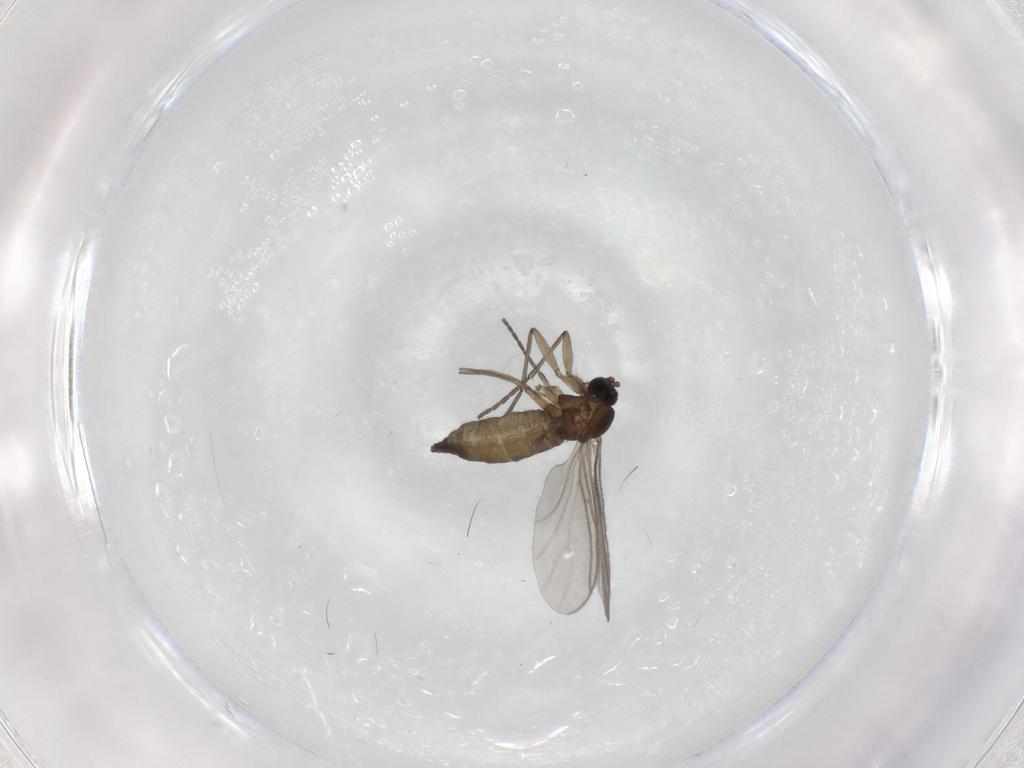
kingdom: Animalia
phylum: Arthropoda
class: Insecta
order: Diptera
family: Sciaridae
